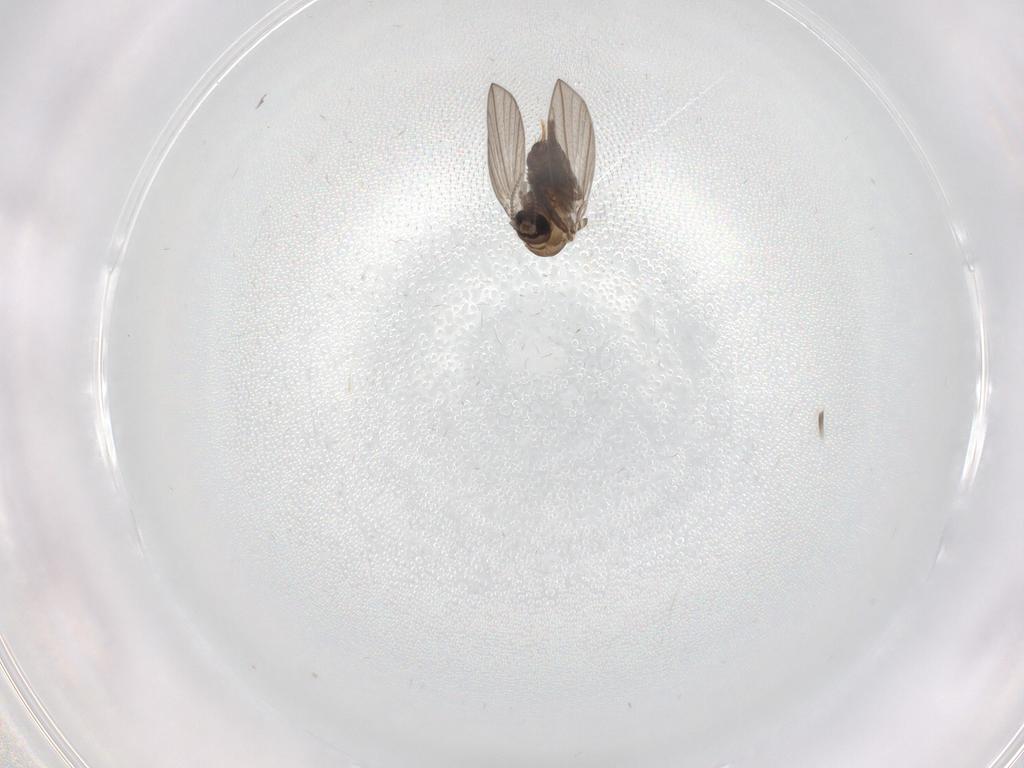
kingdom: Animalia
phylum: Arthropoda
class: Insecta
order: Diptera
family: Psychodidae
